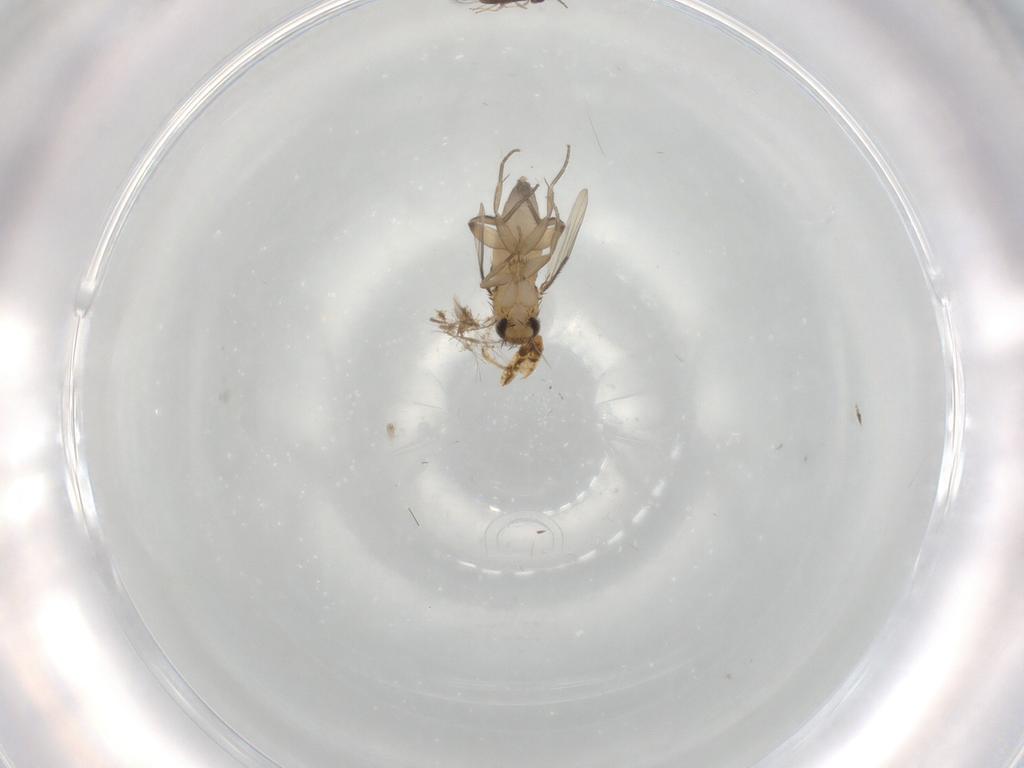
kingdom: Animalia
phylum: Arthropoda
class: Insecta
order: Diptera
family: Phoridae
